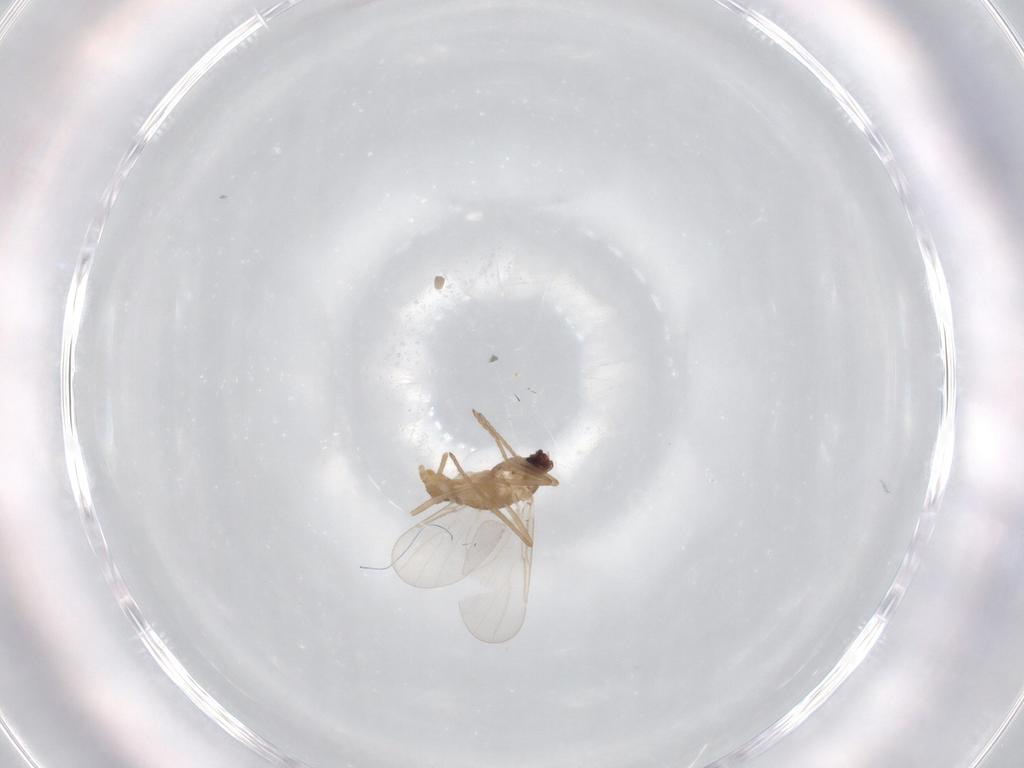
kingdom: Animalia
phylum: Arthropoda
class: Insecta
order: Diptera
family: Cecidomyiidae
